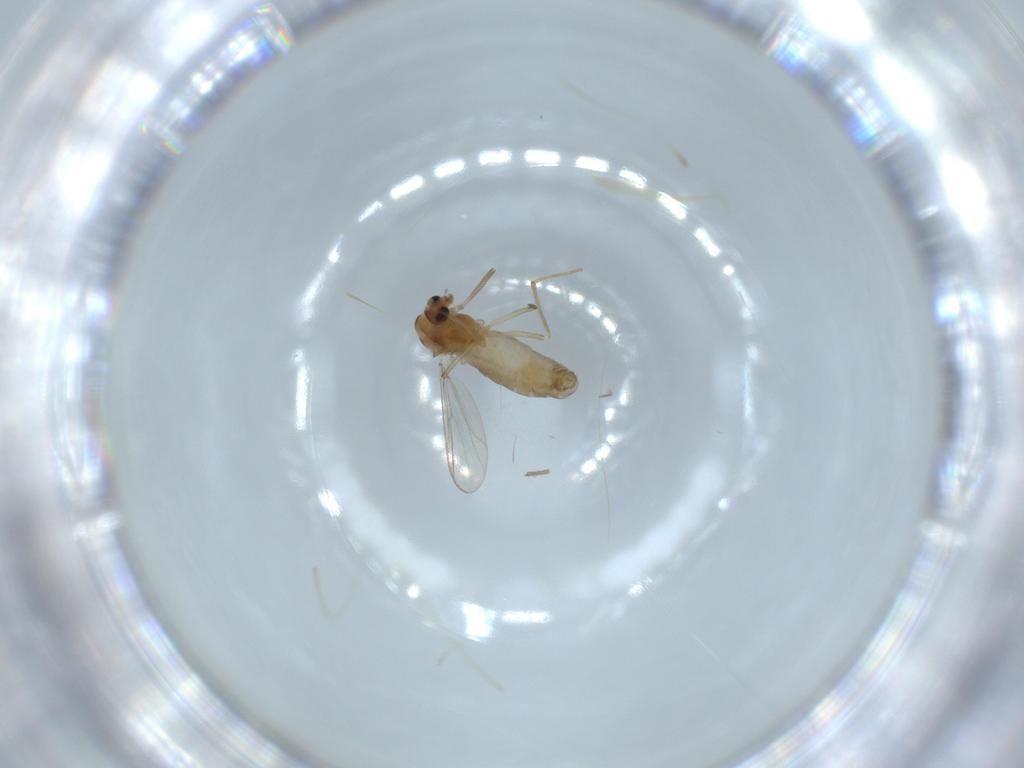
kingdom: Animalia
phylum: Arthropoda
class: Insecta
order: Diptera
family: Chironomidae
